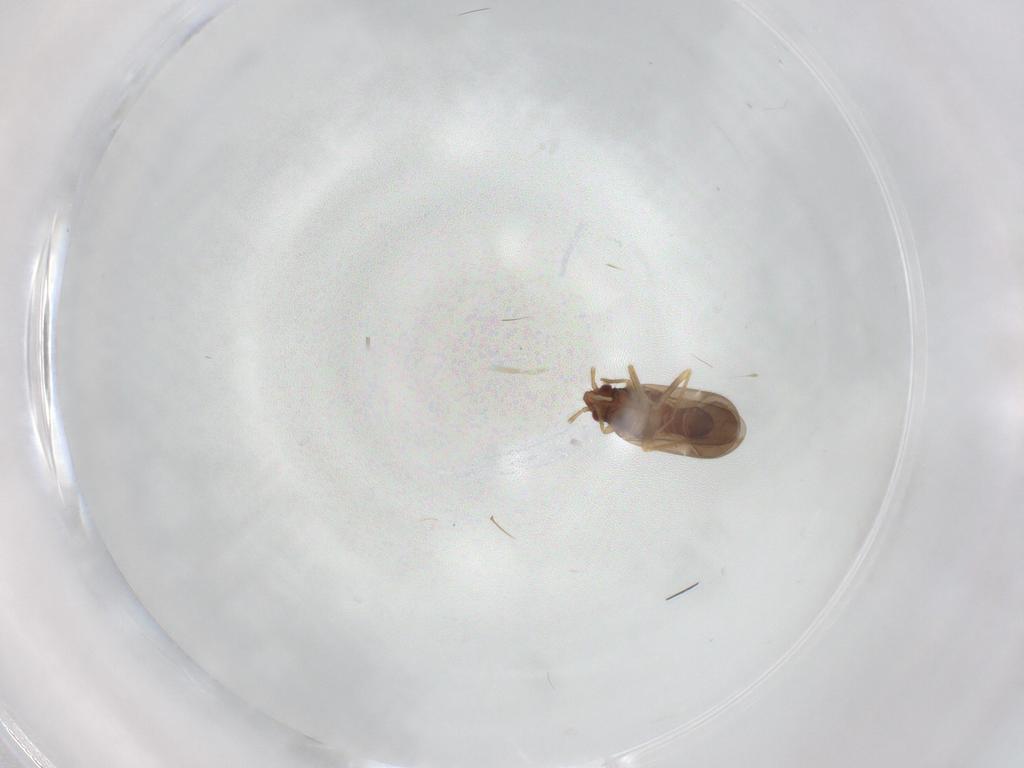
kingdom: Animalia
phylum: Arthropoda
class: Insecta
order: Hemiptera
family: Ceratocombidae
